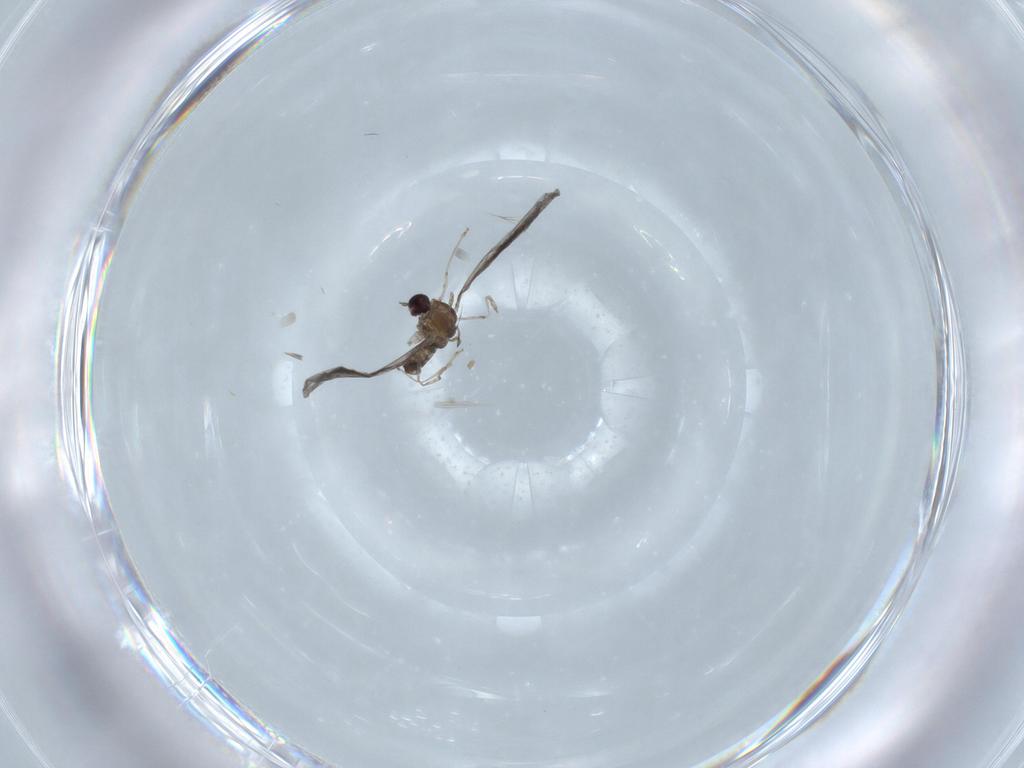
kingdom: Animalia
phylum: Arthropoda
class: Insecta
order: Diptera
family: Cecidomyiidae
